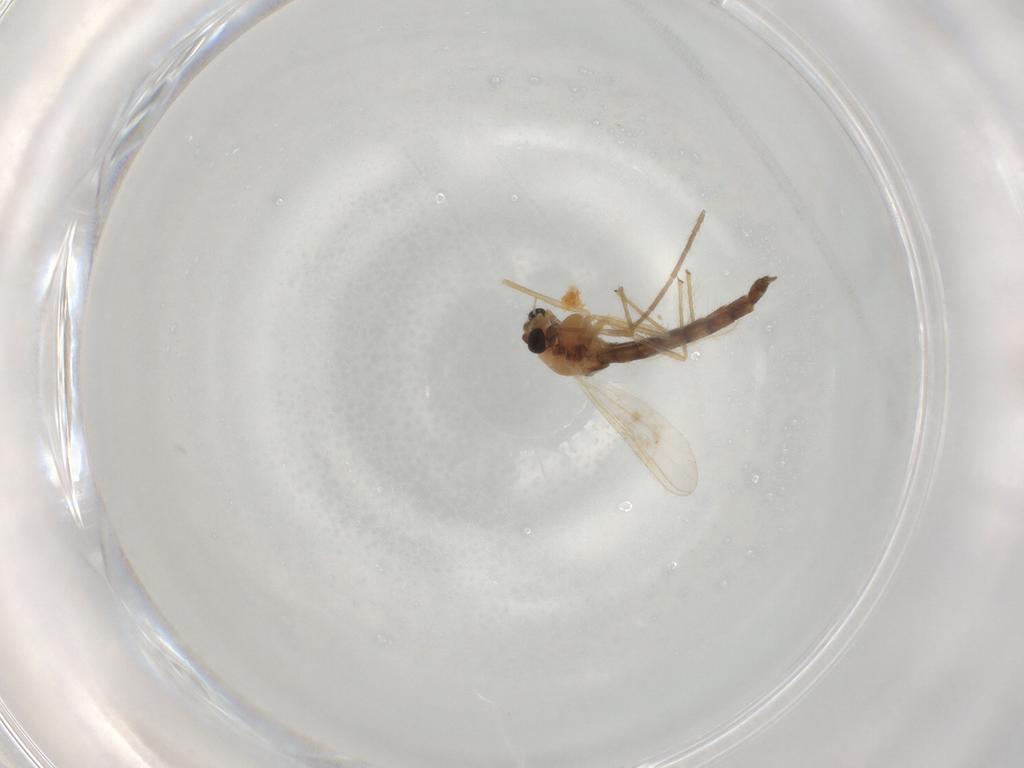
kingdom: Animalia
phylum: Arthropoda
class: Insecta
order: Diptera
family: Chironomidae
